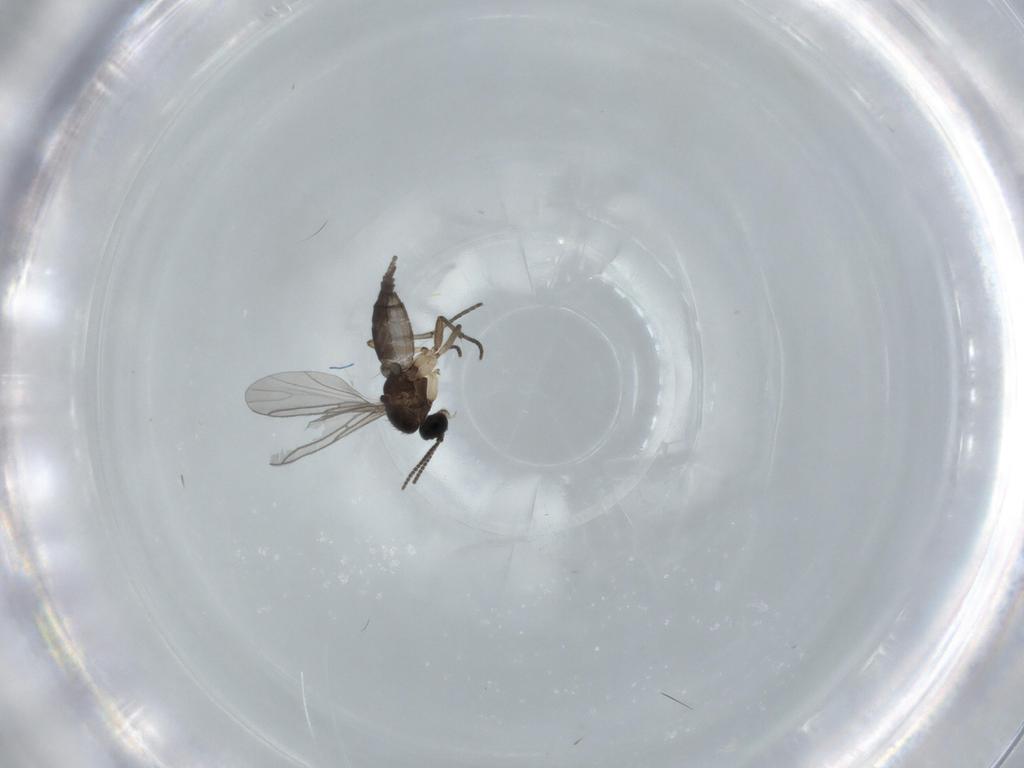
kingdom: Animalia
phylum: Arthropoda
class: Insecta
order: Diptera
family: Sciaridae
